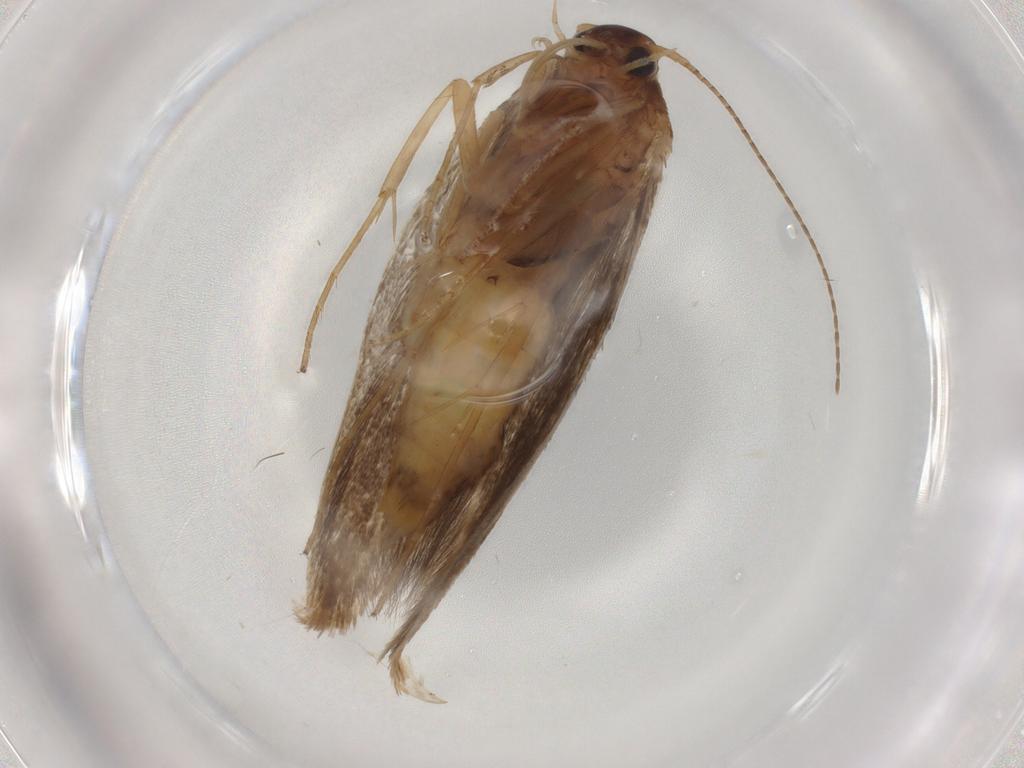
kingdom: Animalia
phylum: Arthropoda
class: Insecta
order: Lepidoptera
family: Scythrididae
